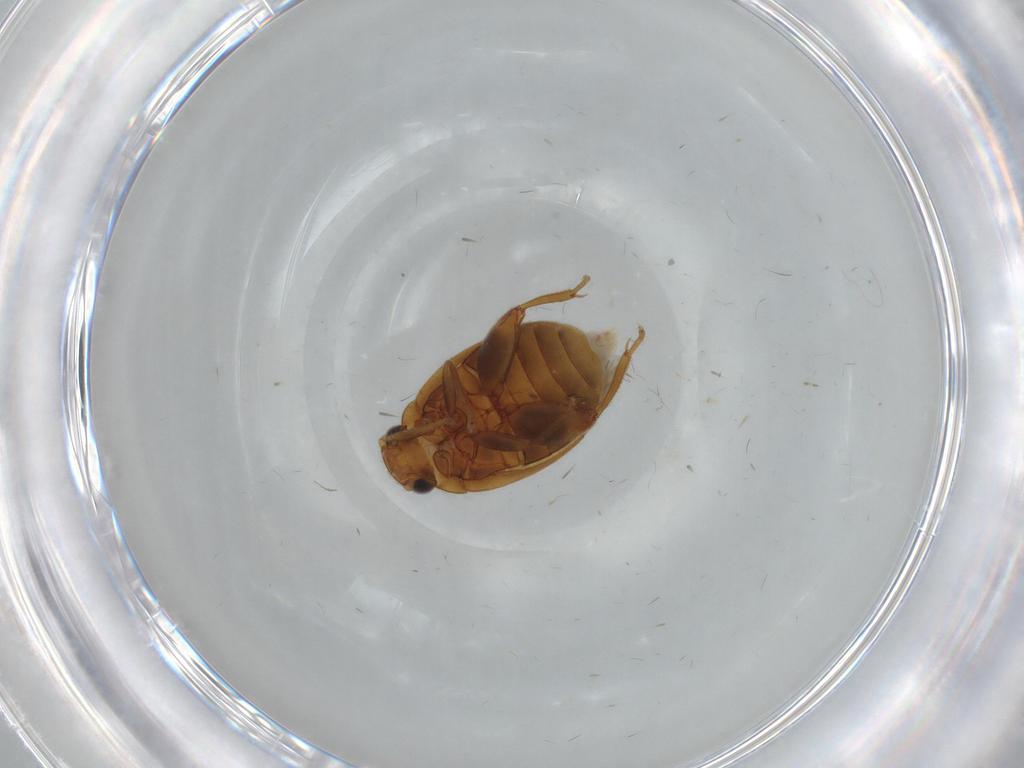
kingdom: Animalia
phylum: Arthropoda
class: Insecta
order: Coleoptera
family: Scirtidae
